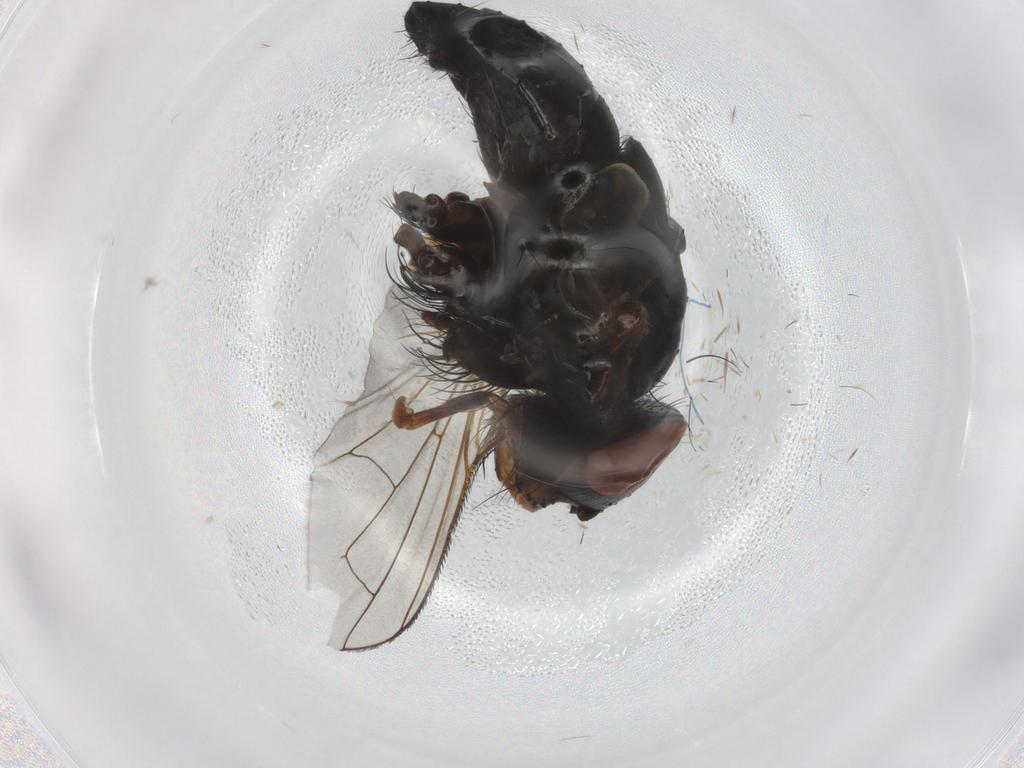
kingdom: Animalia
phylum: Arthropoda
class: Insecta
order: Diptera
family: Tachinidae
